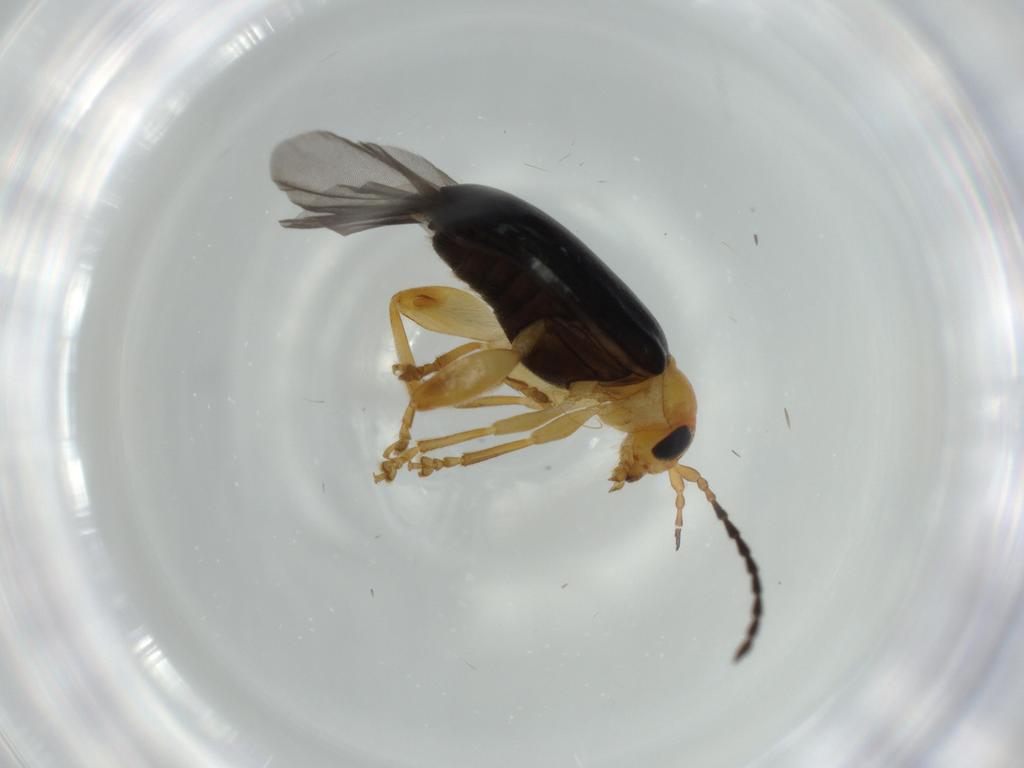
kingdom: Animalia
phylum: Arthropoda
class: Insecta
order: Coleoptera
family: Chrysomelidae
